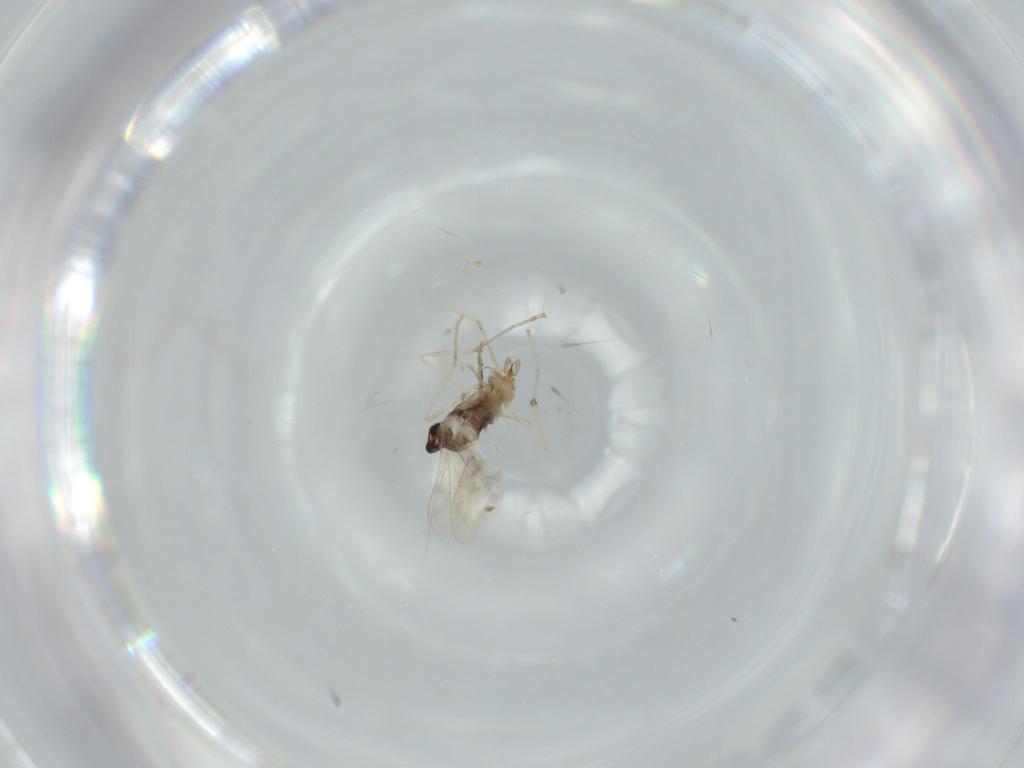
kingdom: Animalia
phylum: Arthropoda
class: Insecta
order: Diptera
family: Cecidomyiidae
